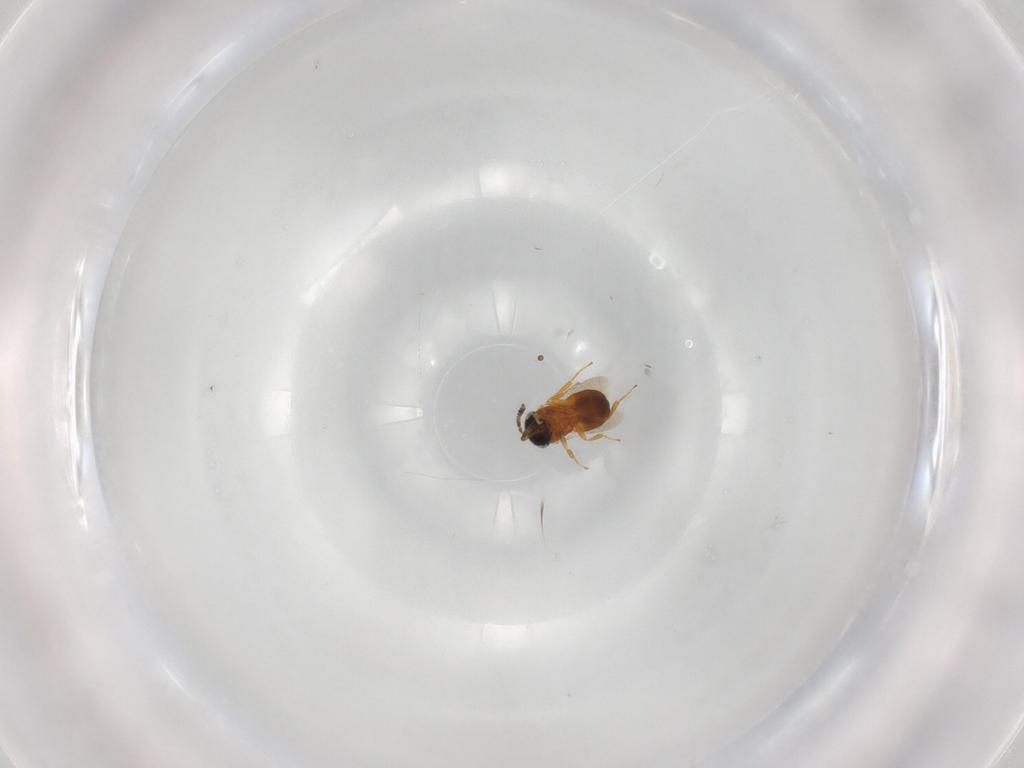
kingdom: Animalia
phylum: Arthropoda
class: Insecta
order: Hymenoptera
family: Scelionidae
